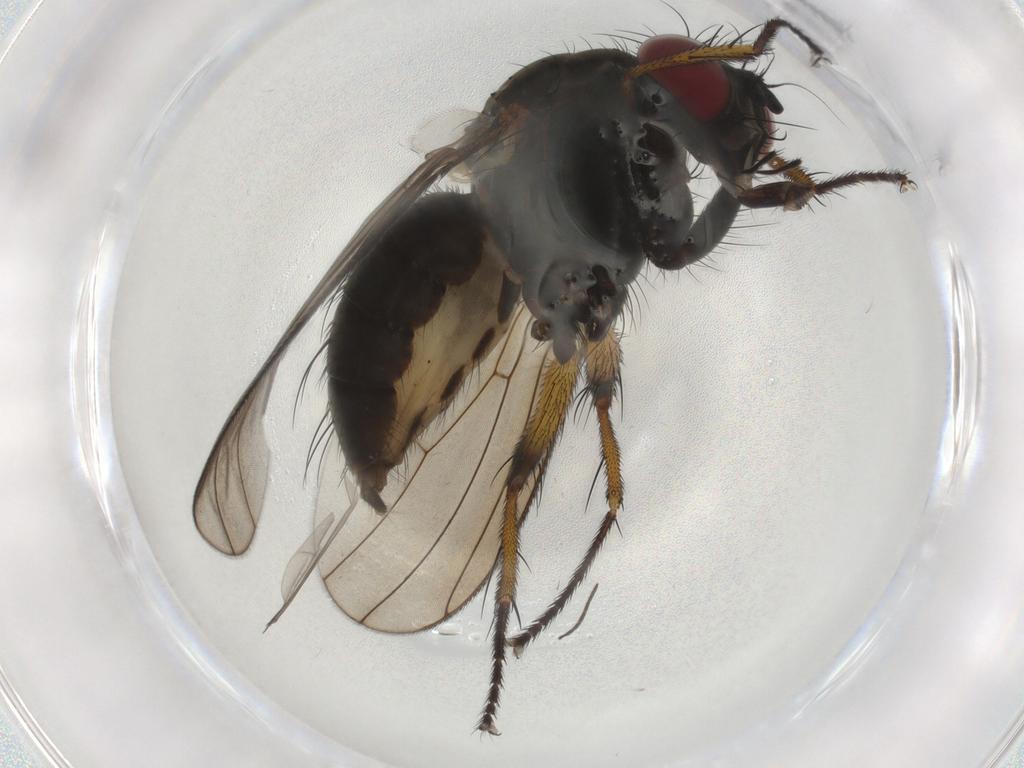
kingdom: Animalia
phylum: Arthropoda
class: Insecta
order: Diptera
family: Muscidae
